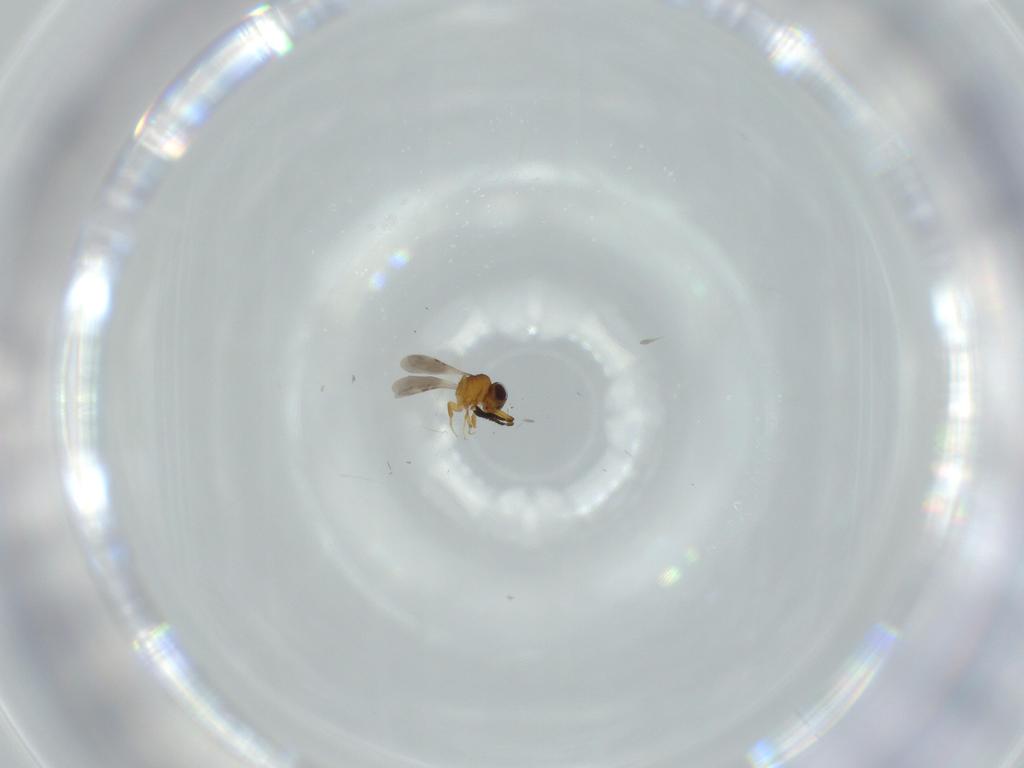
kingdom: Animalia
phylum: Arthropoda
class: Insecta
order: Hymenoptera
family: Ceraphronidae
